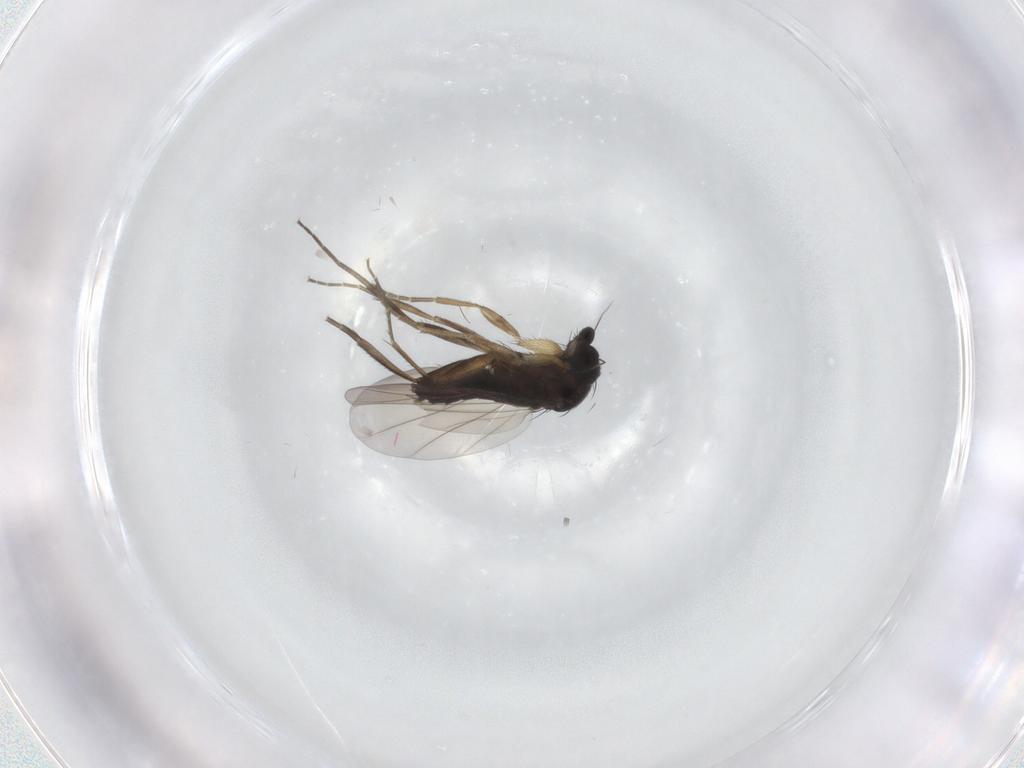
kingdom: Animalia
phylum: Arthropoda
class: Insecta
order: Diptera
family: Phoridae
